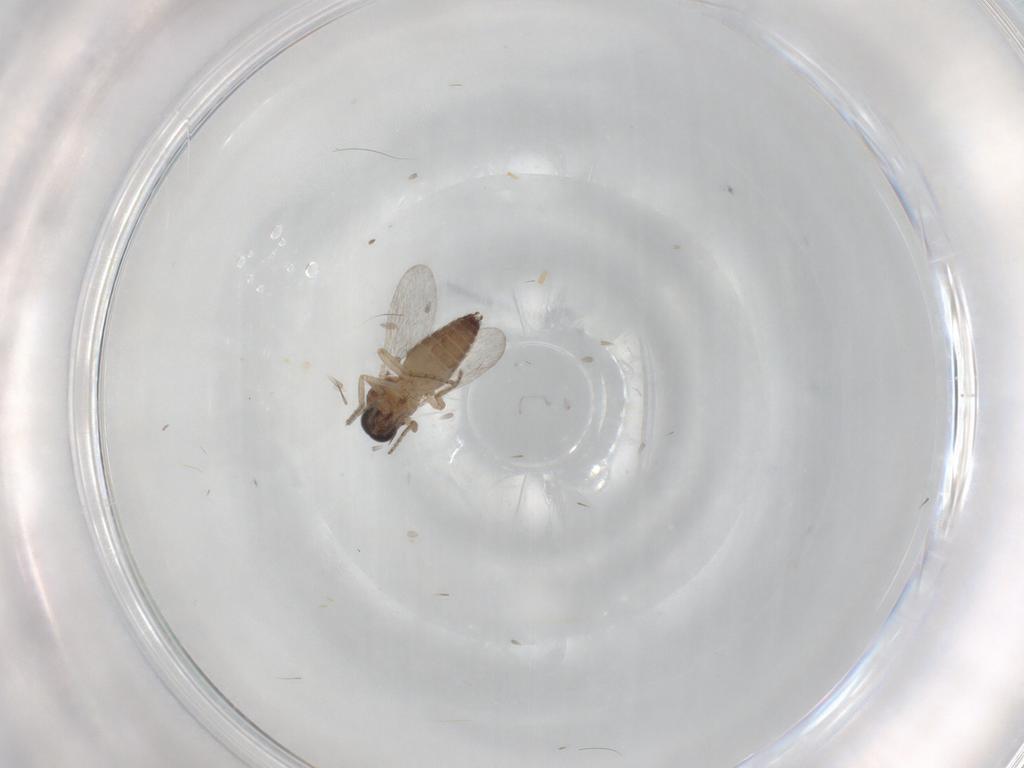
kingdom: Animalia
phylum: Arthropoda
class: Insecta
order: Diptera
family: Ceratopogonidae
